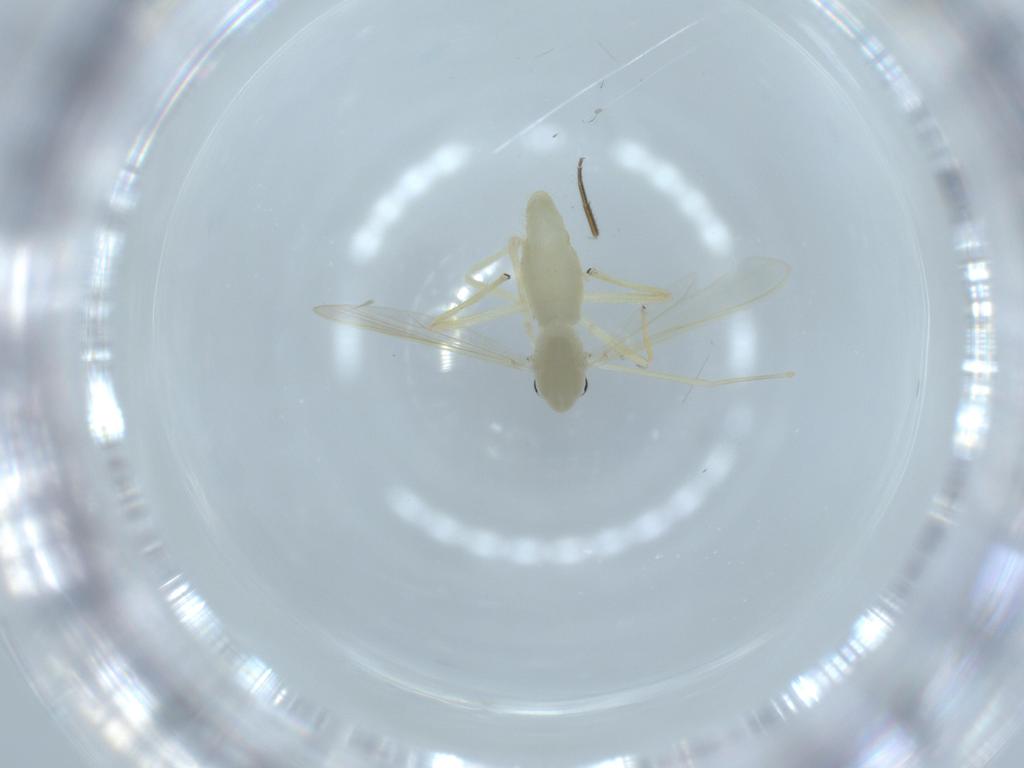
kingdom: Animalia
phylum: Arthropoda
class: Insecta
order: Diptera
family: Chironomidae
